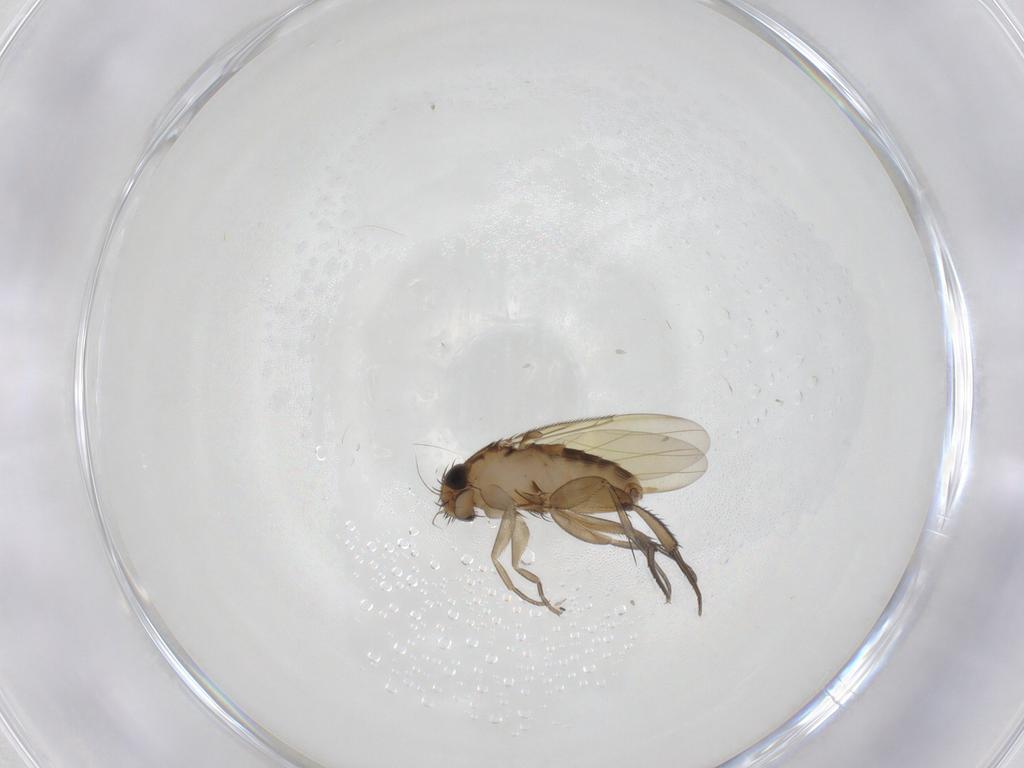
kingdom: Animalia
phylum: Arthropoda
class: Insecta
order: Diptera
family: Phoridae
